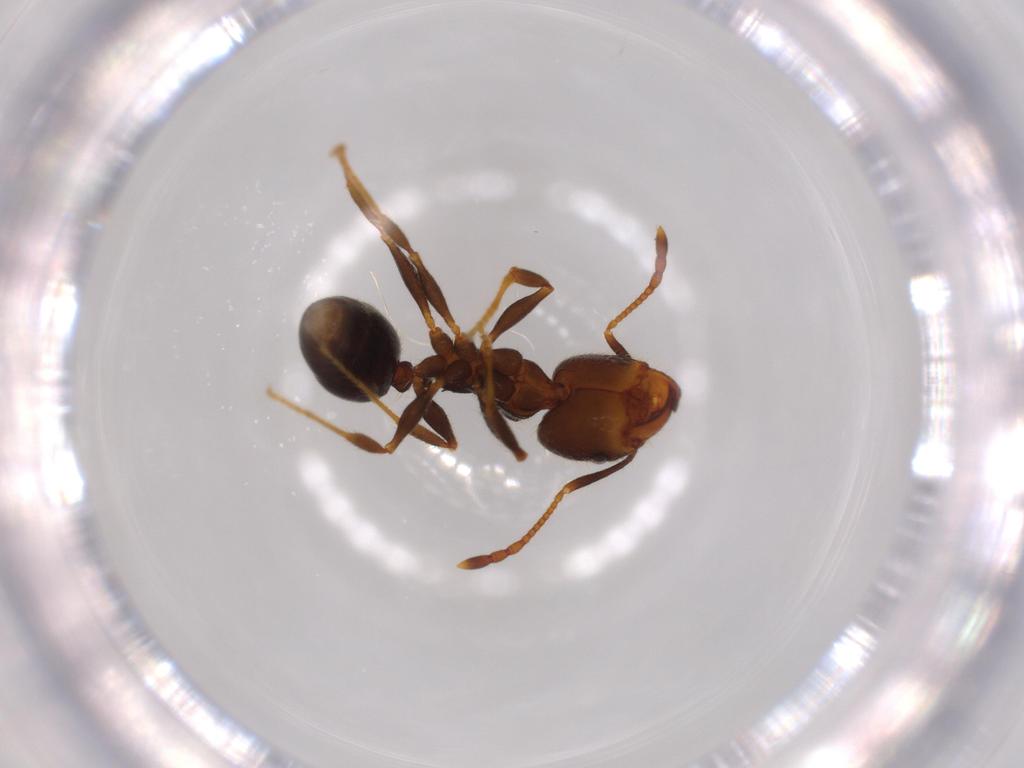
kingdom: Animalia
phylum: Arthropoda
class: Insecta
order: Hymenoptera
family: Formicidae
